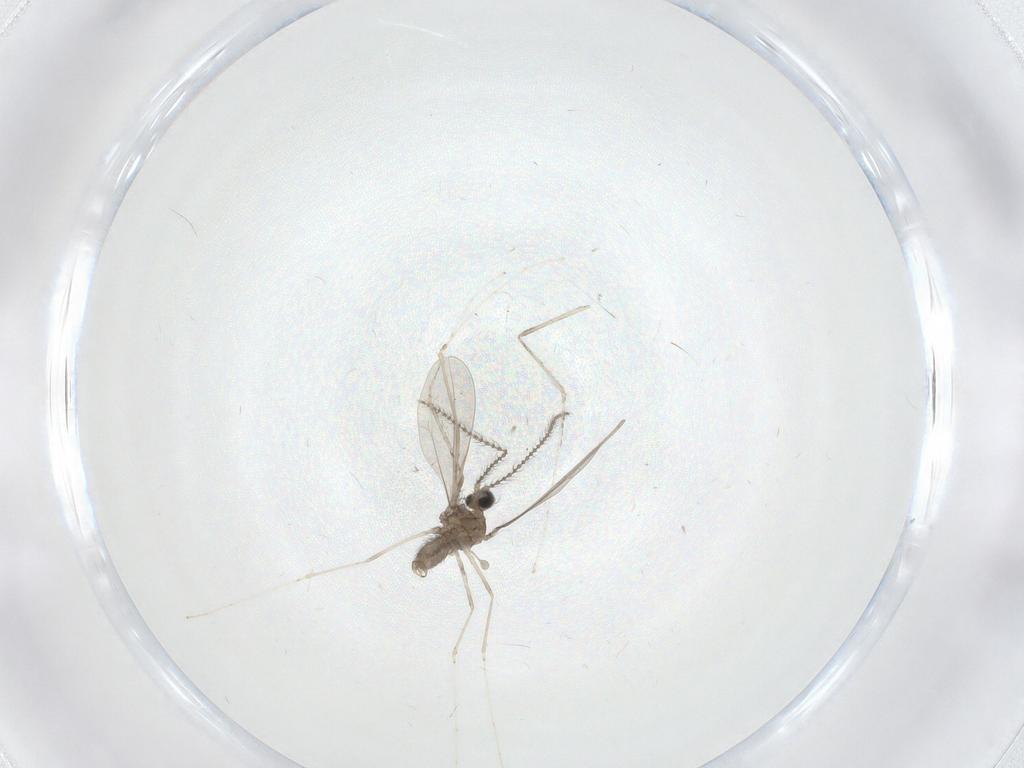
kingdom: Animalia
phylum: Arthropoda
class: Insecta
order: Diptera
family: Cecidomyiidae
